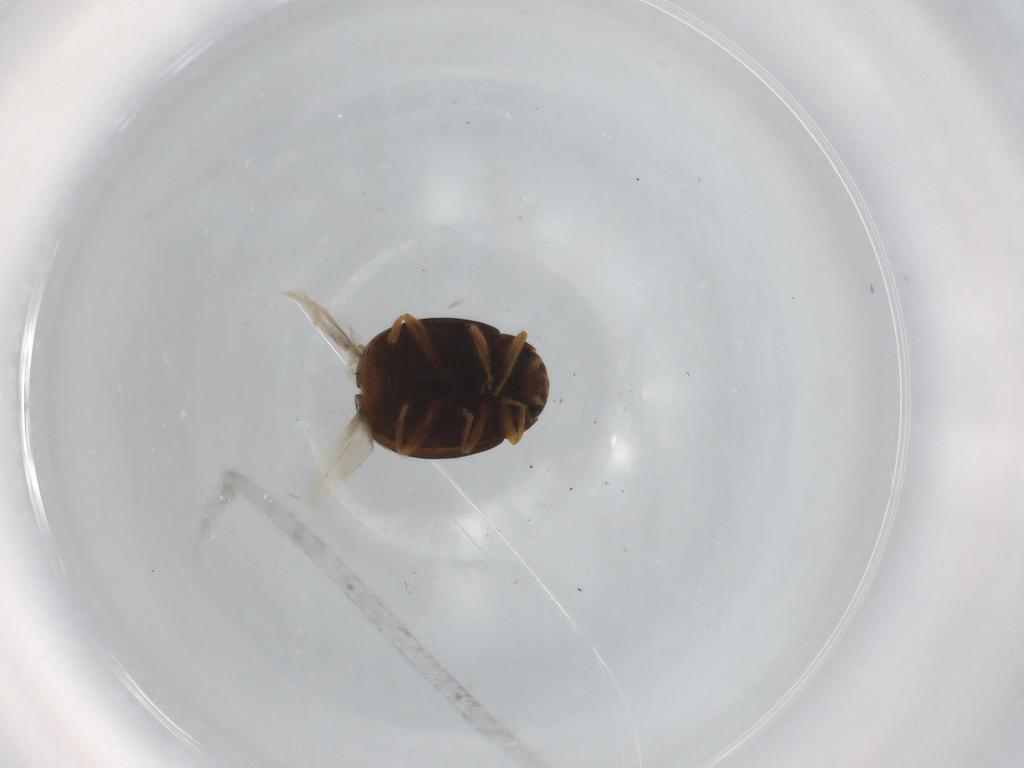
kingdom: Animalia
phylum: Arthropoda
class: Insecta
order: Coleoptera
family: Coccinellidae
